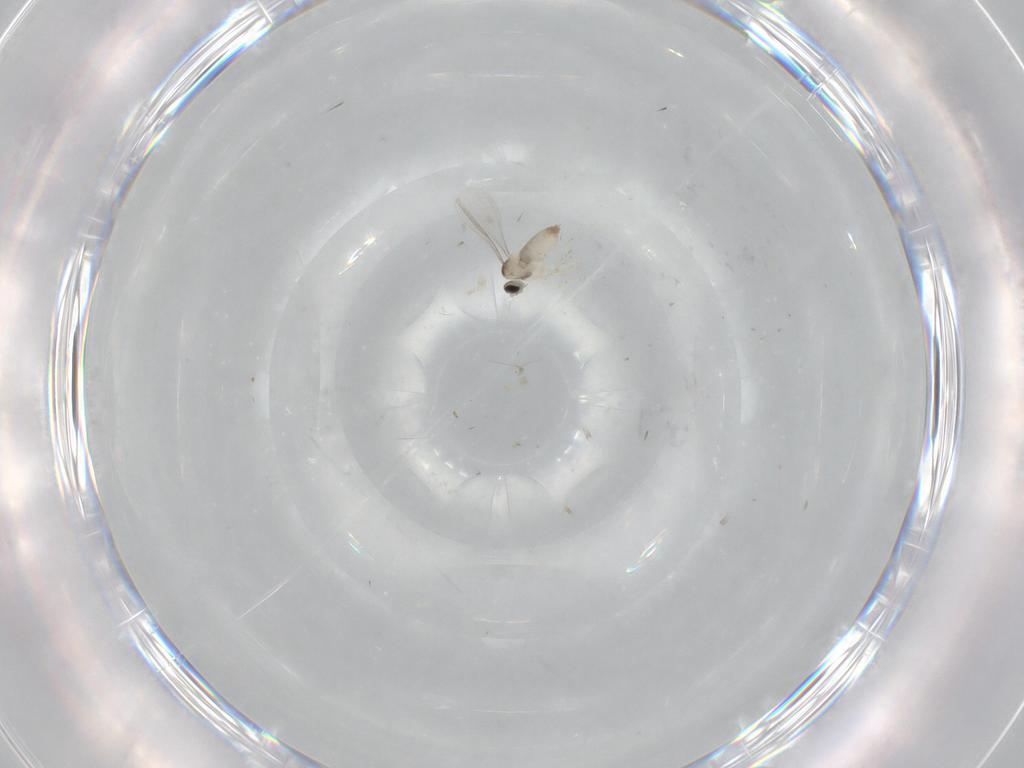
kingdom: Animalia
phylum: Arthropoda
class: Insecta
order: Diptera
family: Cecidomyiidae
